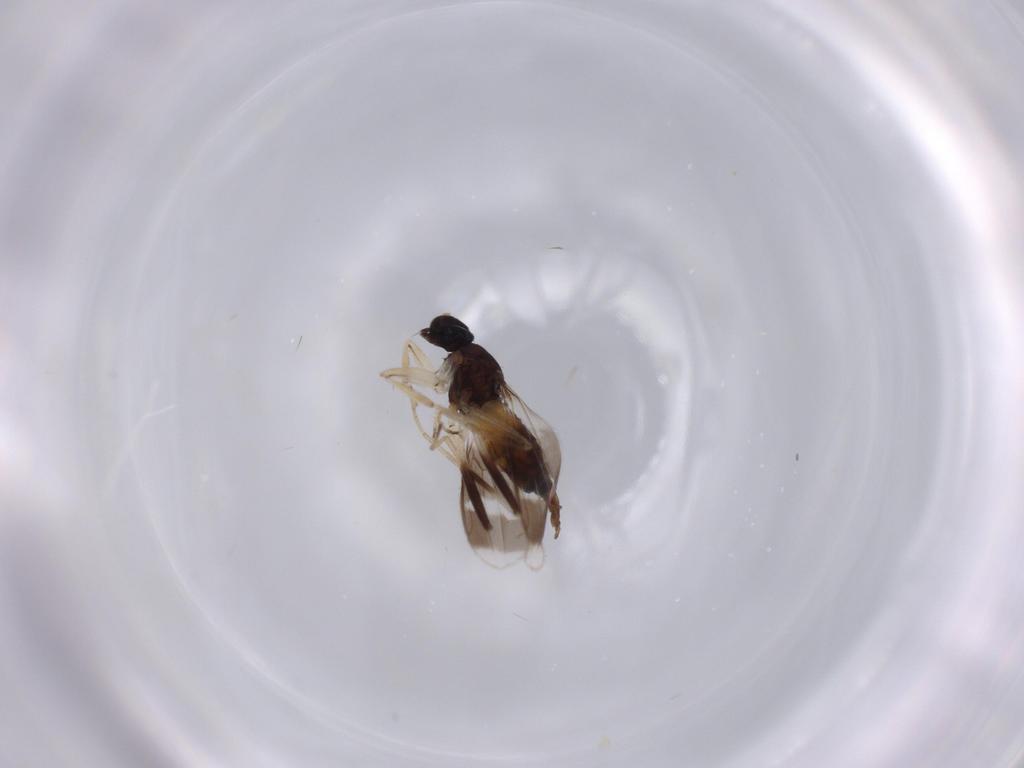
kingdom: Animalia
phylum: Arthropoda
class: Insecta
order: Diptera
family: Hybotidae
